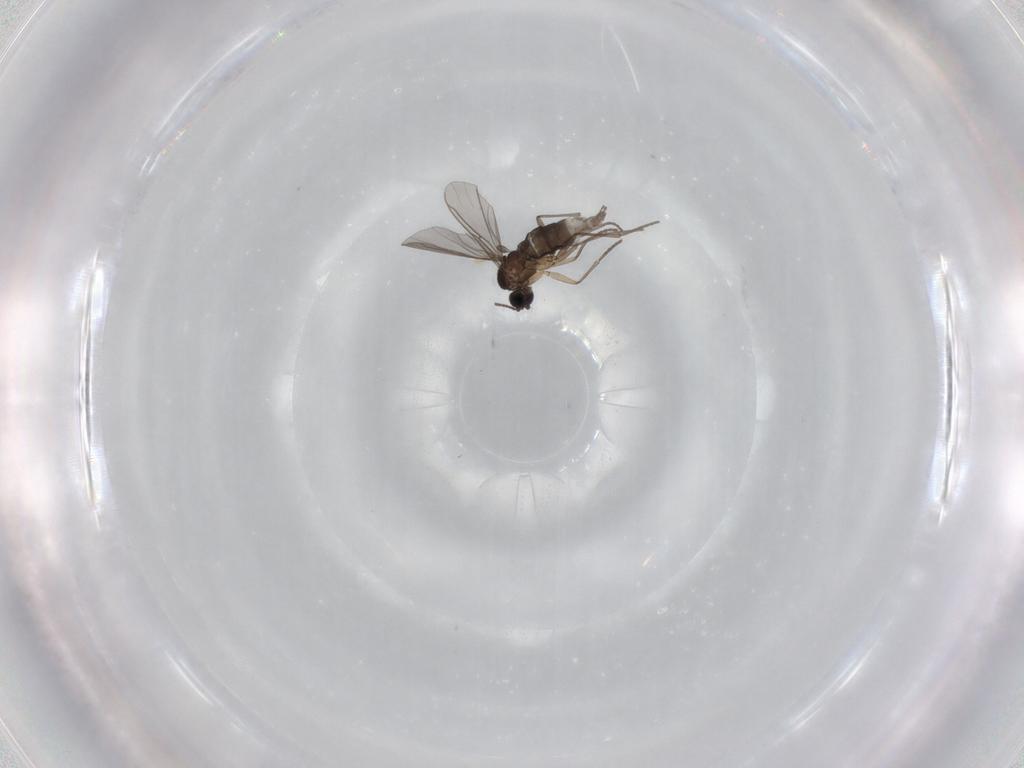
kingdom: Animalia
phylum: Arthropoda
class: Insecta
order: Diptera
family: Sciaridae
